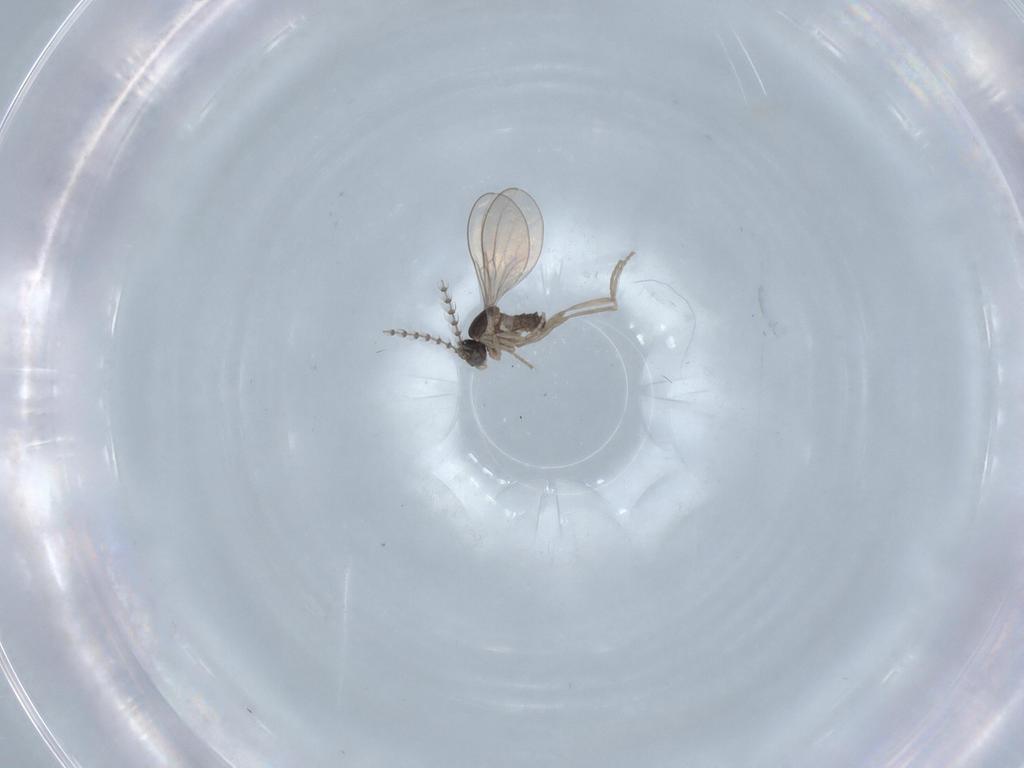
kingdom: Animalia
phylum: Arthropoda
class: Insecta
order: Diptera
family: Cecidomyiidae
